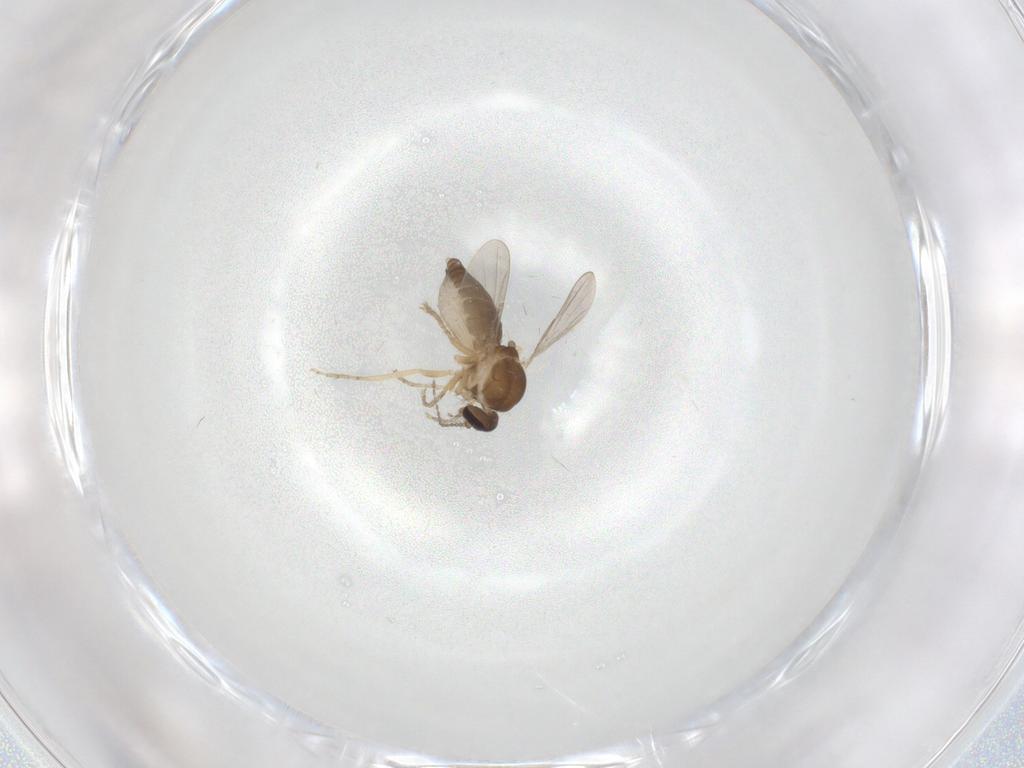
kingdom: Animalia
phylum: Arthropoda
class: Insecta
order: Diptera
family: Ceratopogonidae
